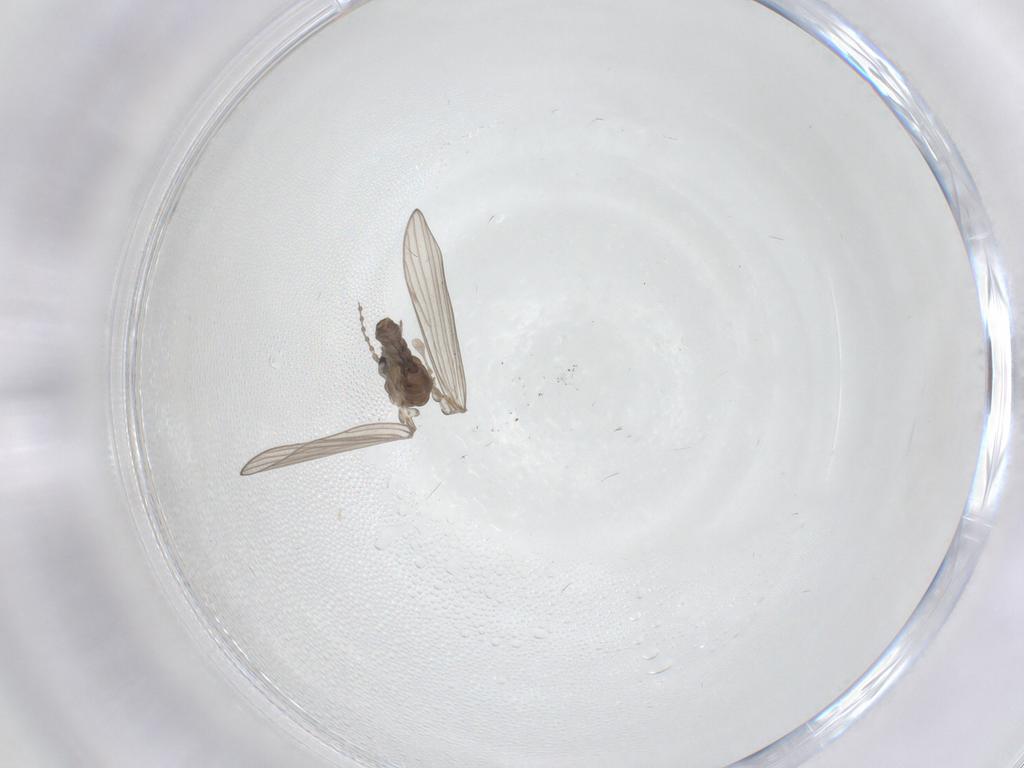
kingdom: Animalia
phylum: Arthropoda
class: Insecta
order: Diptera
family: Psychodidae
